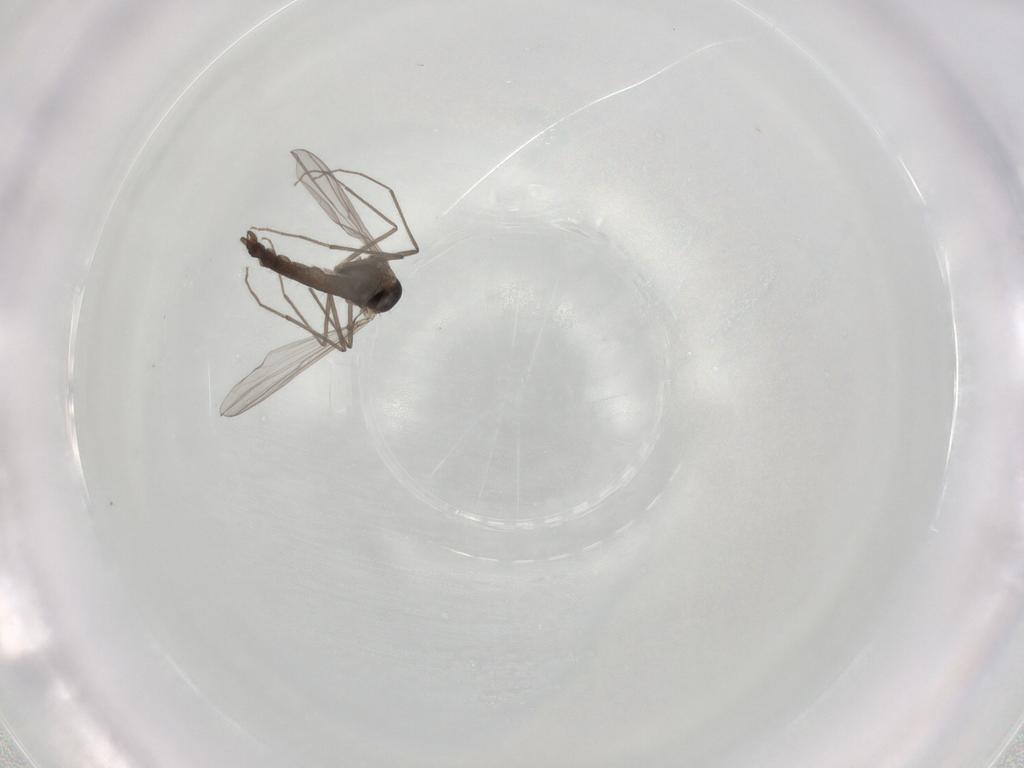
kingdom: Animalia
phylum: Arthropoda
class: Insecta
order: Diptera
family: Chironomidae
